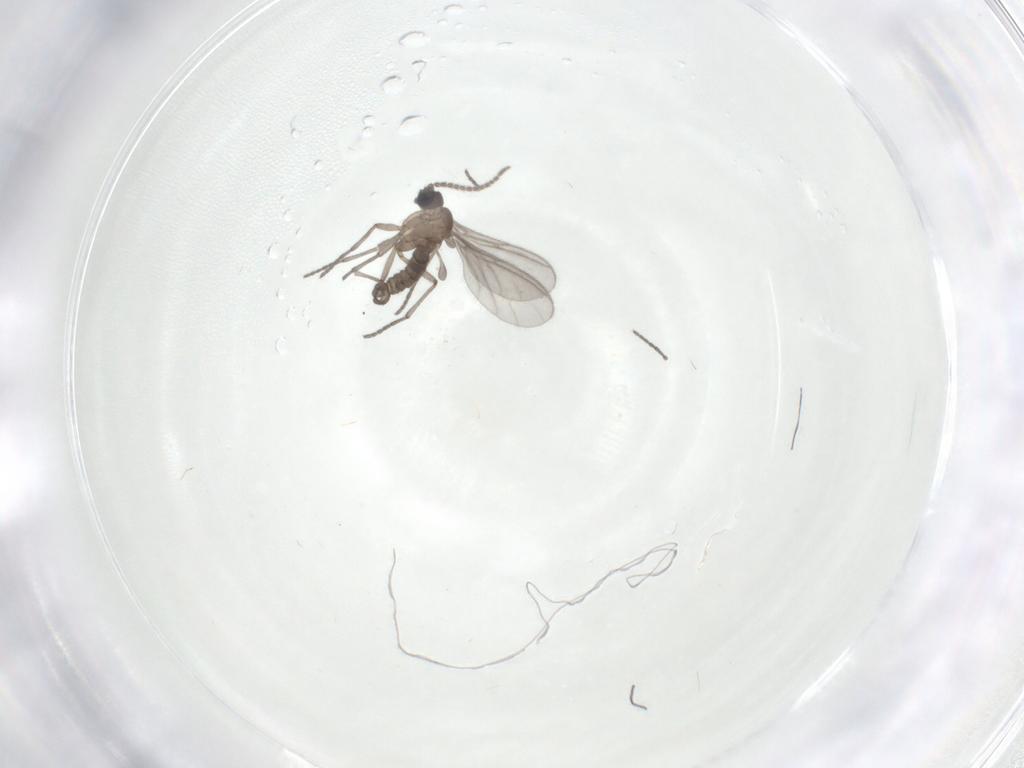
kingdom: Animalia
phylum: Arthropoda
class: Insecta
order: Diptera
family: Sciaridae
